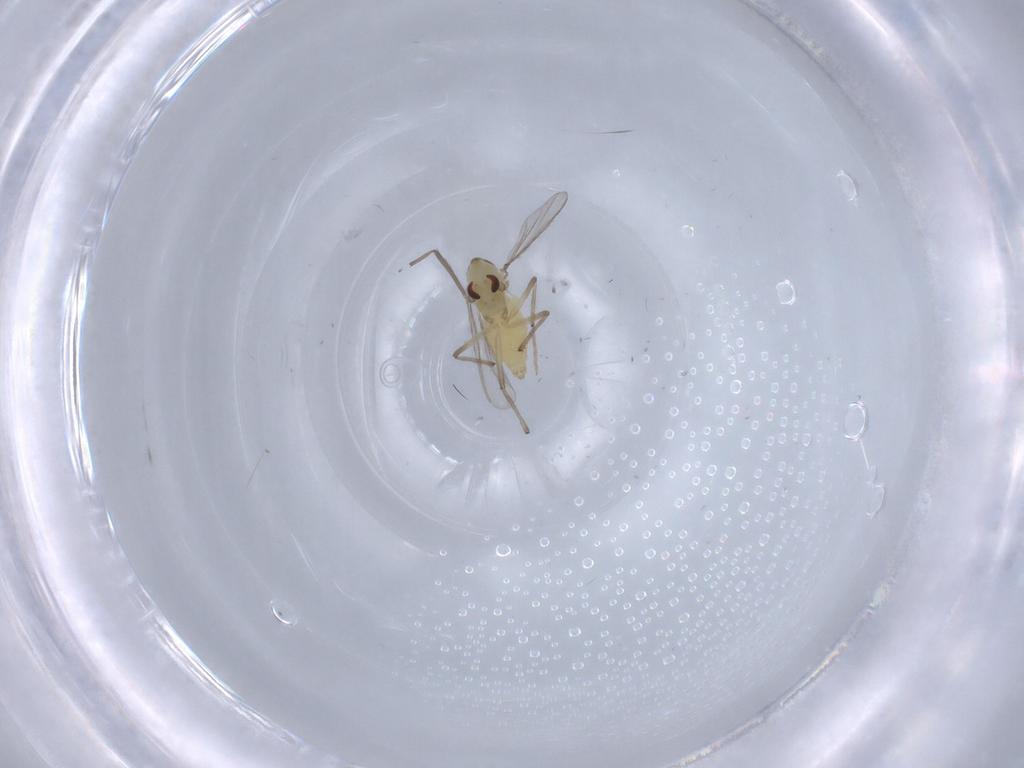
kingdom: Animalia
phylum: Arthropoda
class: Insecta
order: Diptera
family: Chironomidae
